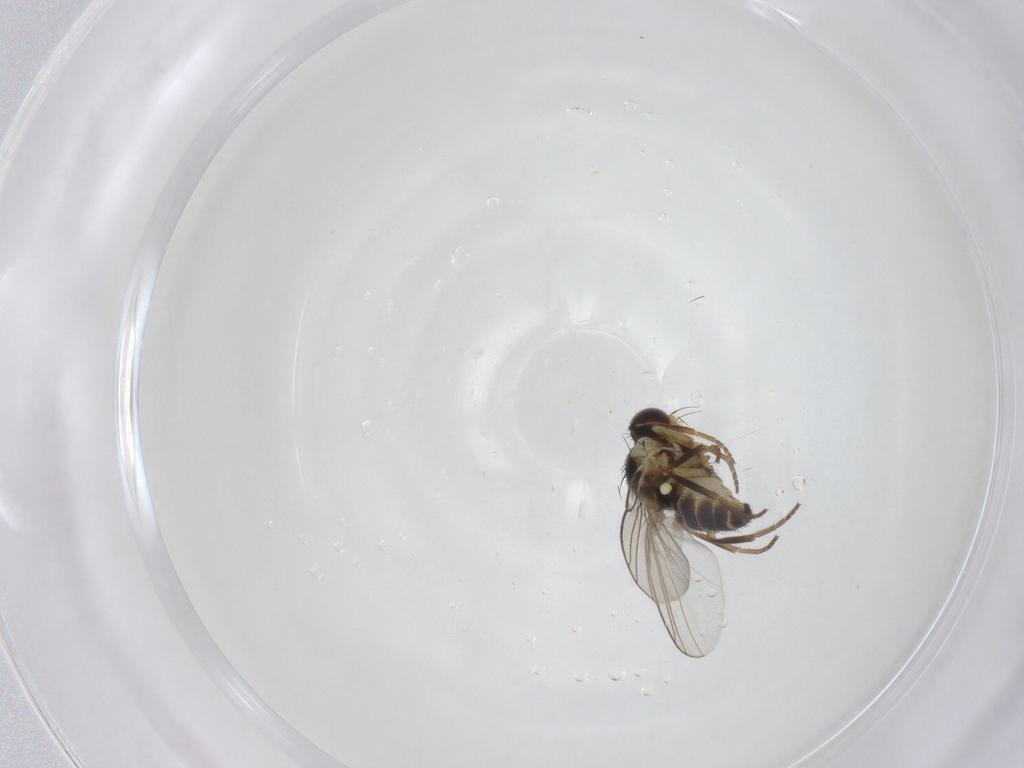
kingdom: Animalia
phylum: Arthropoda
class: Insecta
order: Diptera
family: Agromyzidae
